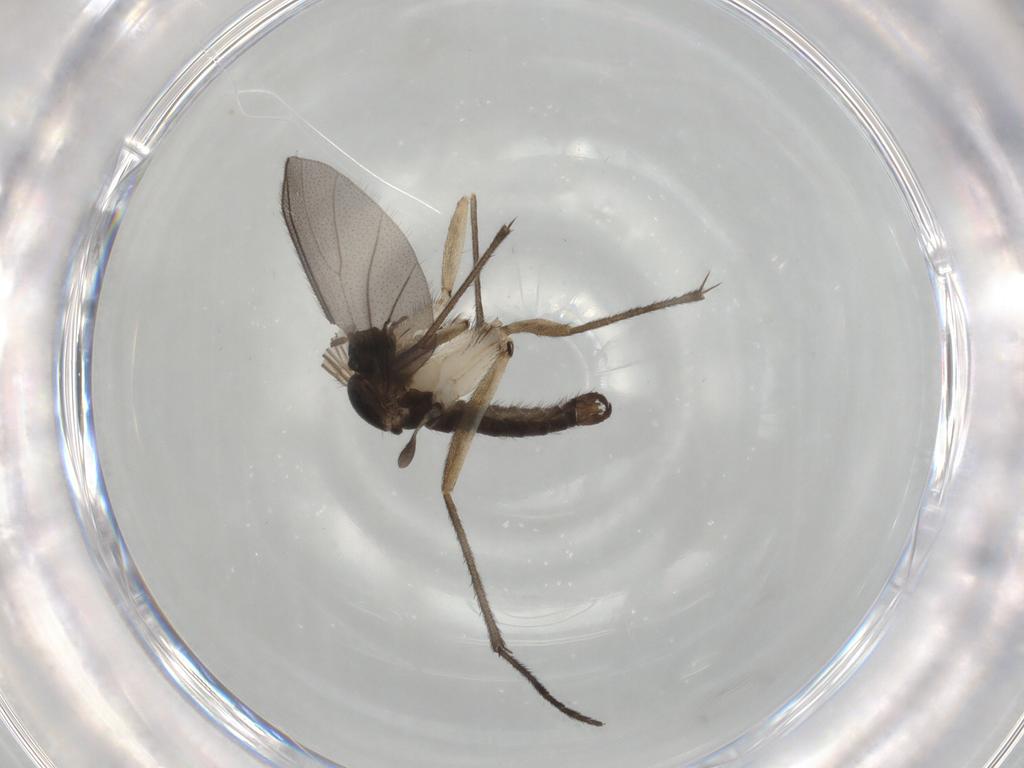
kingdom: Animalia
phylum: Arthropoda
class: Insecta
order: Diptera
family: Sciaridae
